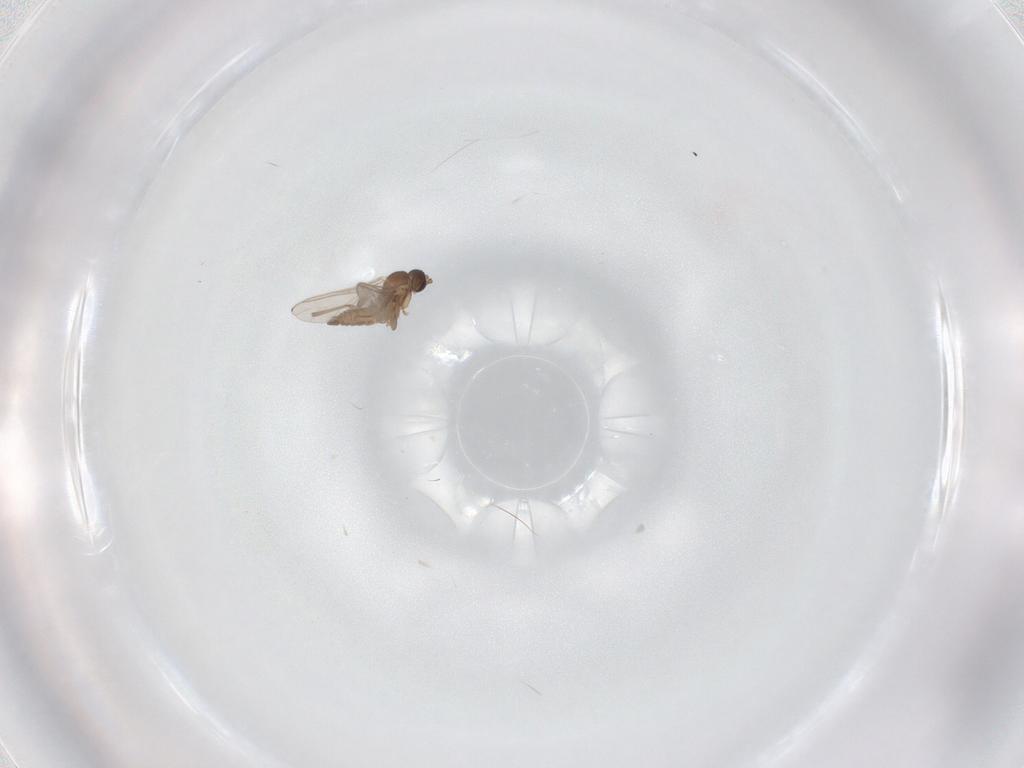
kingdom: Animalia
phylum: Arthropoda
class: Insecta
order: Diptera
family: Sciaridae
